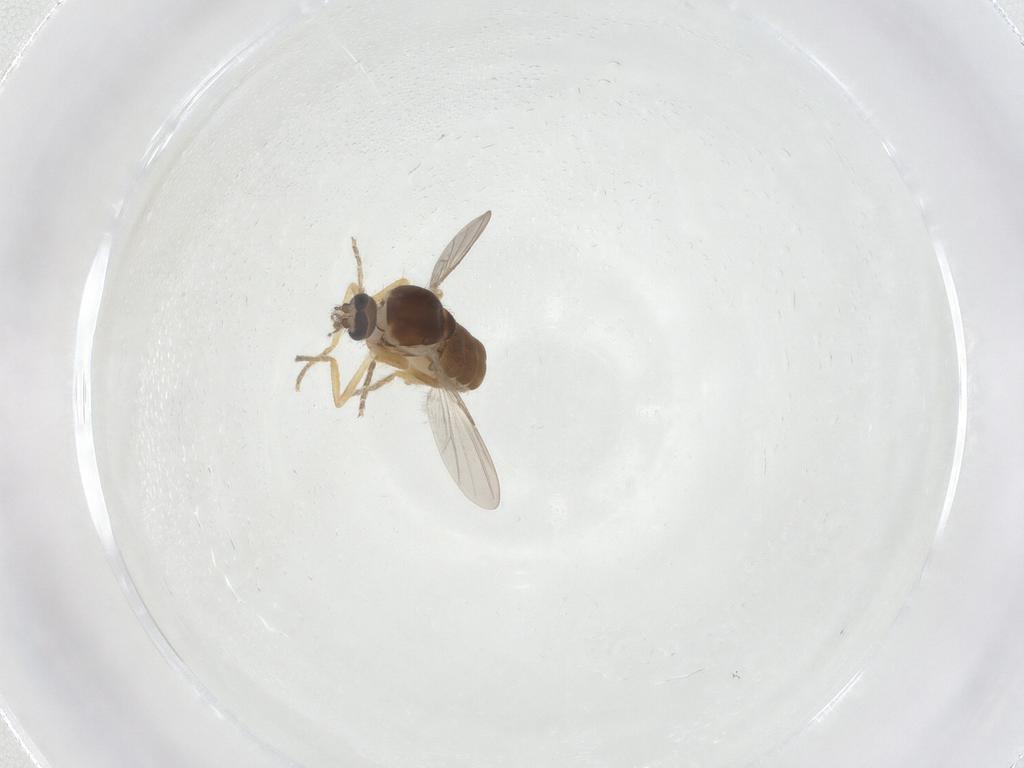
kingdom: Animalia
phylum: Arthropoda
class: Insecta
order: Diptera
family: Ceratopogonidae
